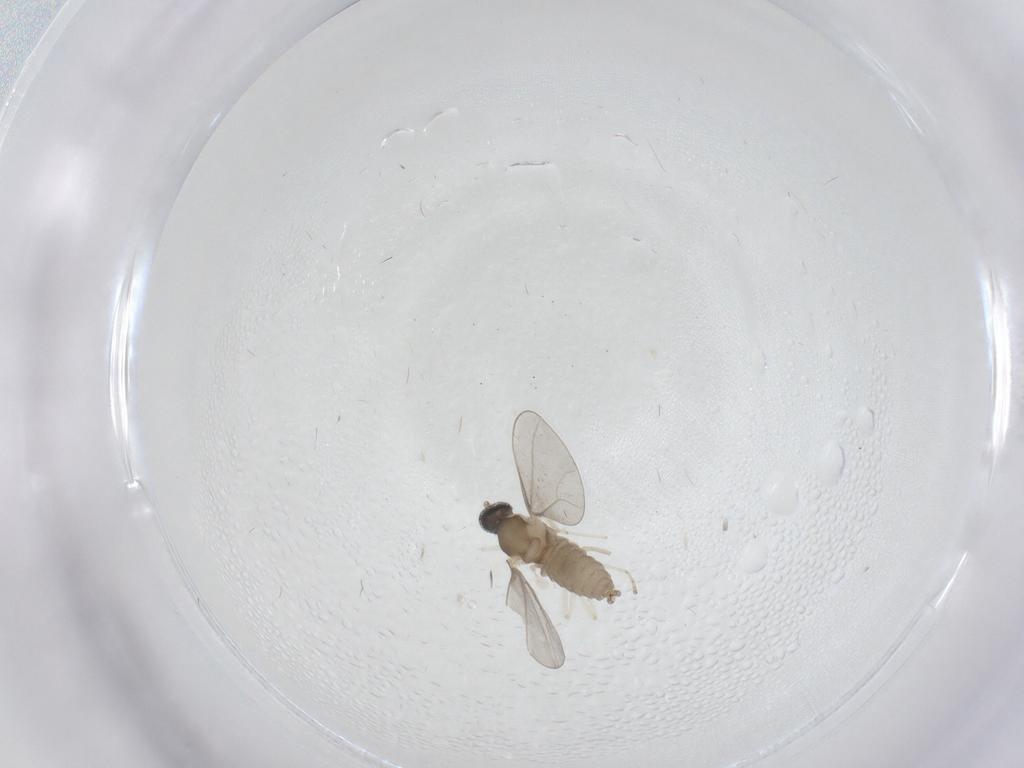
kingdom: Animalia
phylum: Arthropoda
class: Insecta
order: Diptera
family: Cecidomyiidae
